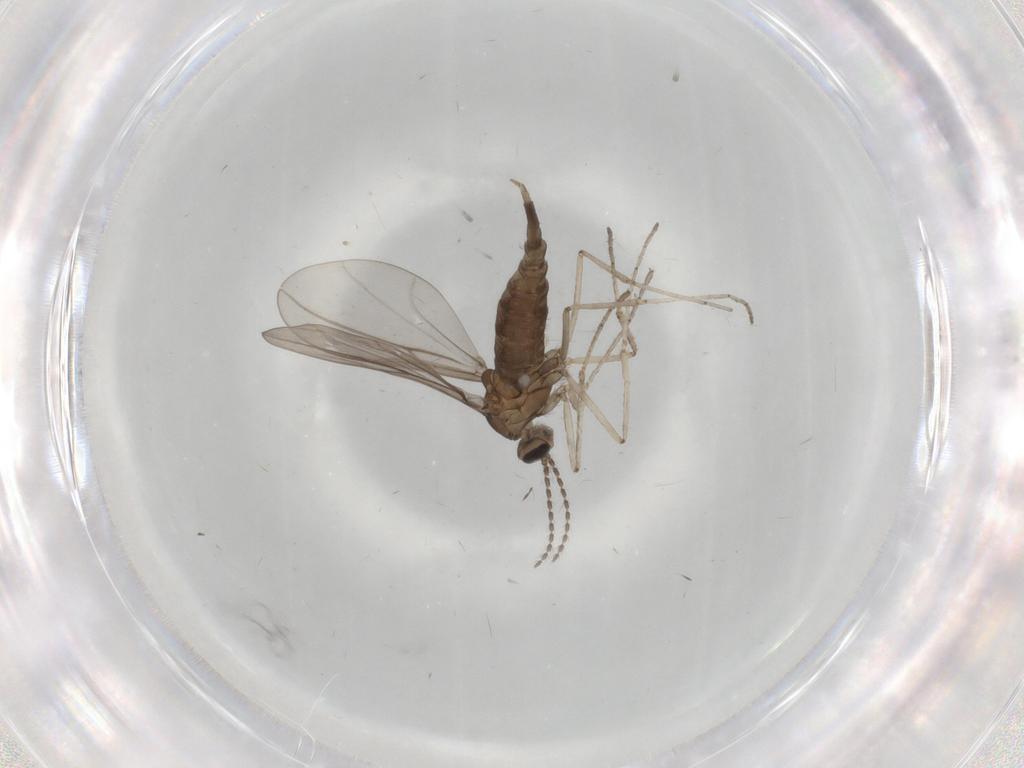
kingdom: Animalia
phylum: Arthropoda
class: Insecta
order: Diptera
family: Cecidomyiidae
